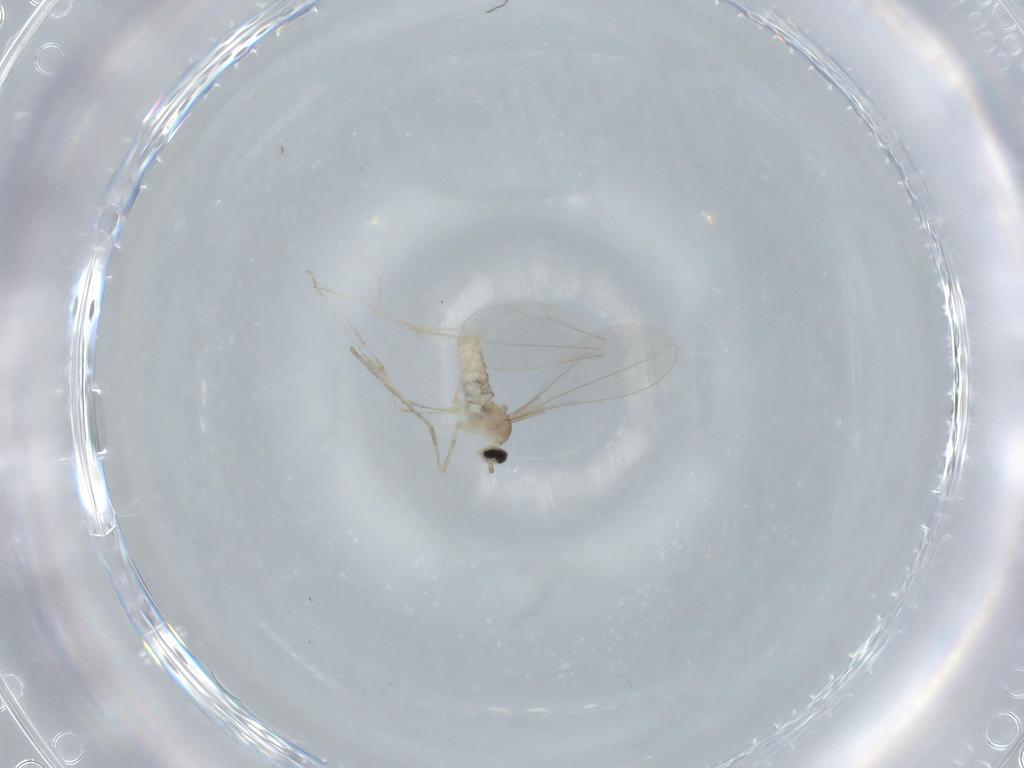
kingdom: Animalia
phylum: Arthropoda
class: Insecta
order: Diptera
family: Cecidomyiidae
